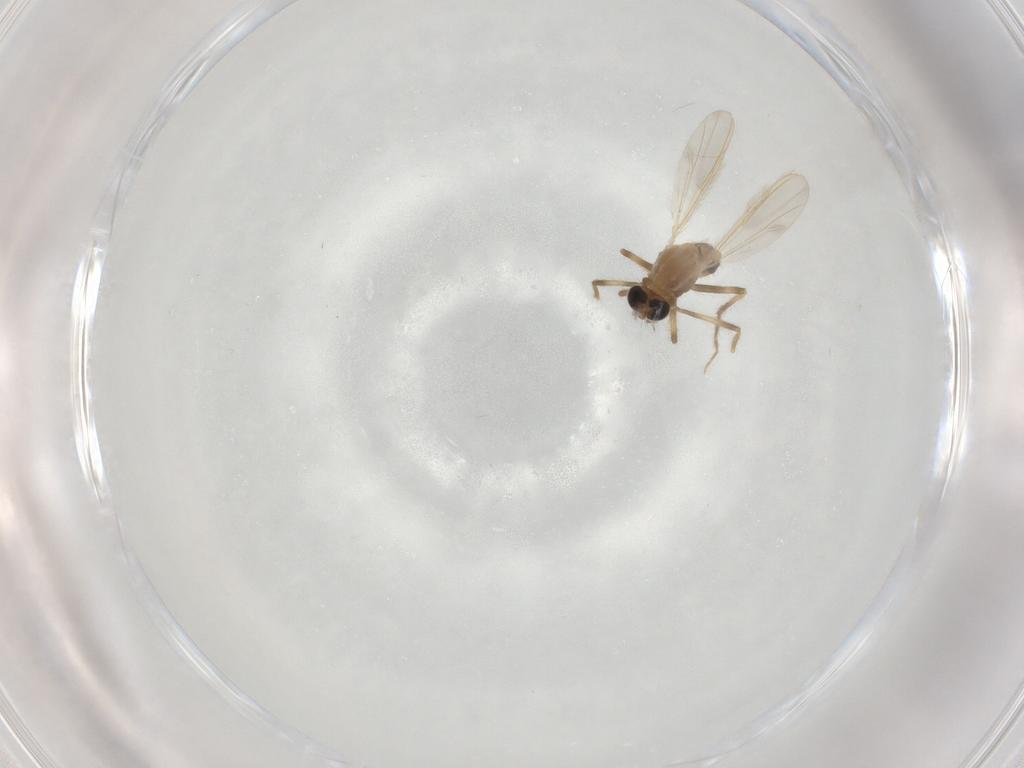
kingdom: Animalia
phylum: Arthropoda
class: Insecta
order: Diptera
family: Chironomidae
